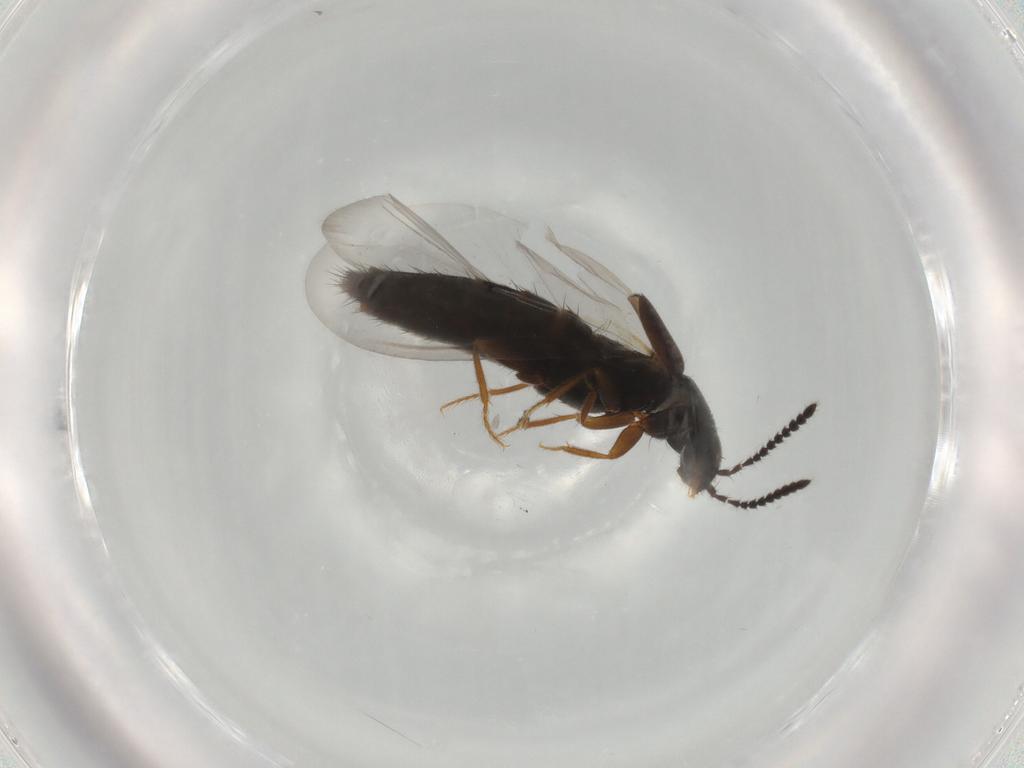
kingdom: Animalia
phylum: Arthropoda
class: Insecta
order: Coleoptera
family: Staphylinidae
